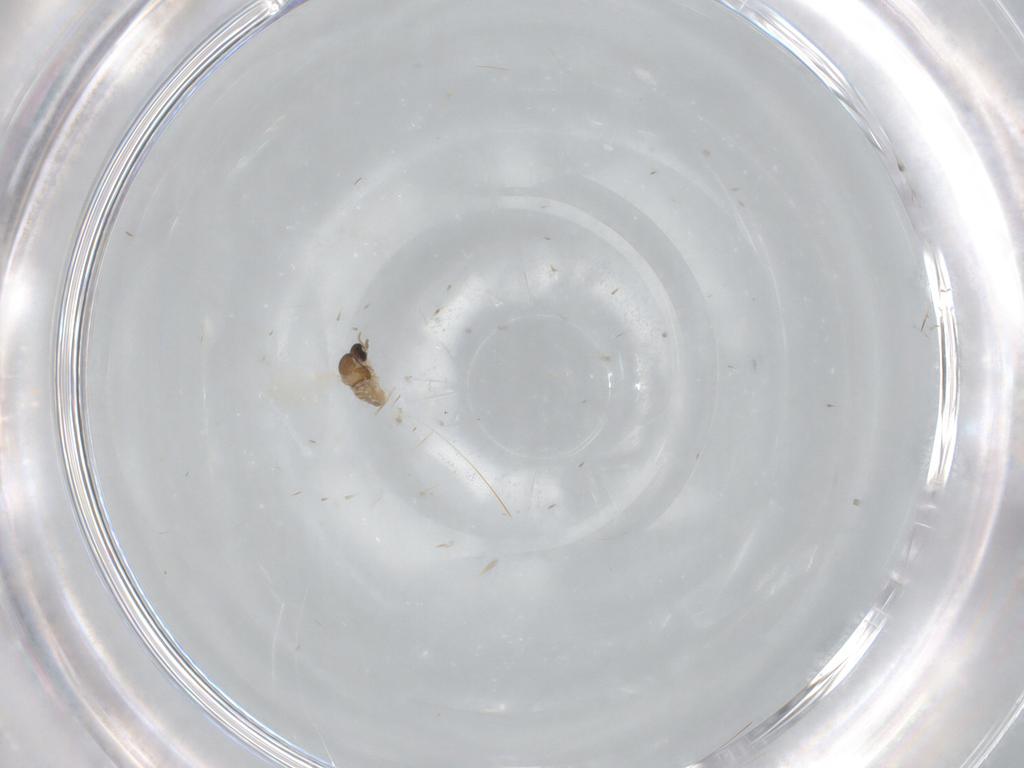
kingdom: Animalia
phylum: Arthropoda
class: Insecta
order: Diptera
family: Cecidomyiidae
